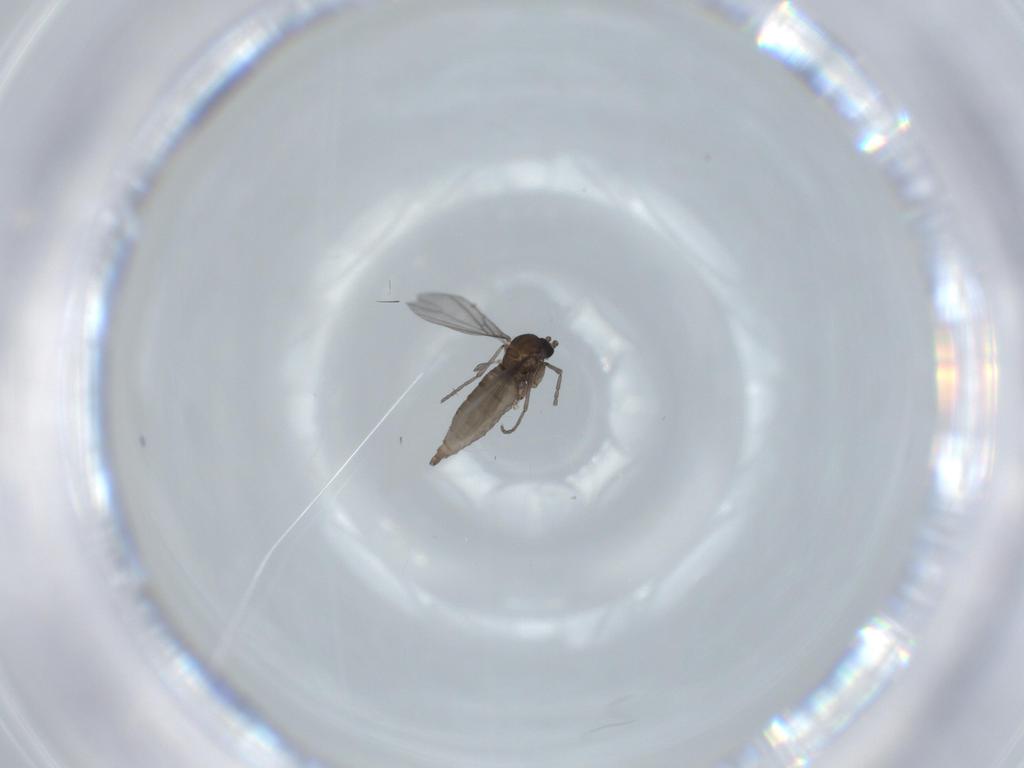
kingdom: Animalia
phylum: Arthropoda
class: Insecta
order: Diptera
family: Sciaridae
